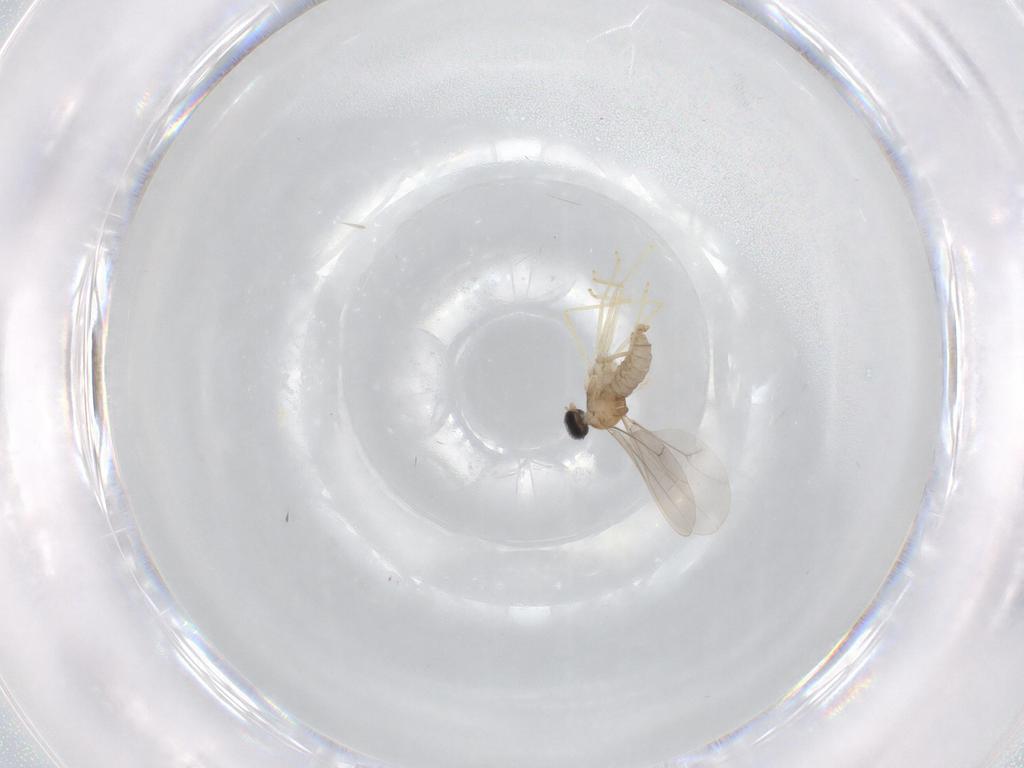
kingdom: Animalia
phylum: Arthropoda
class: Insecta
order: Diptera
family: Cecidomyiidae
